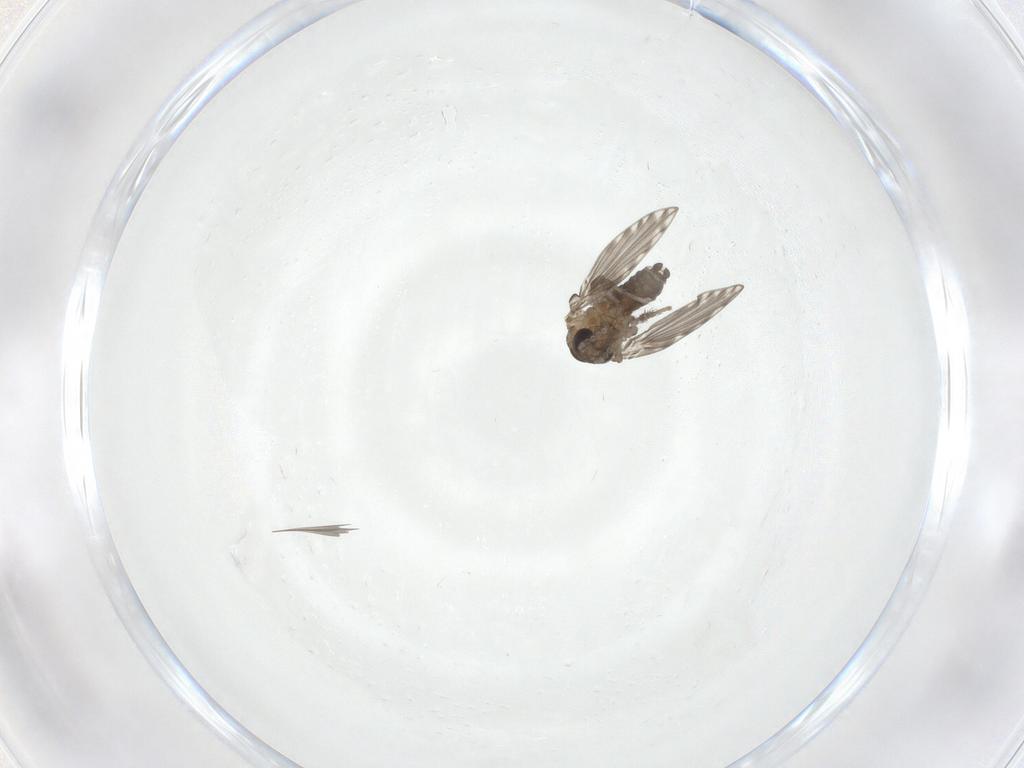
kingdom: Animalia
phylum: Arthropoda
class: Insecta
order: Diptera
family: Psychodidae
